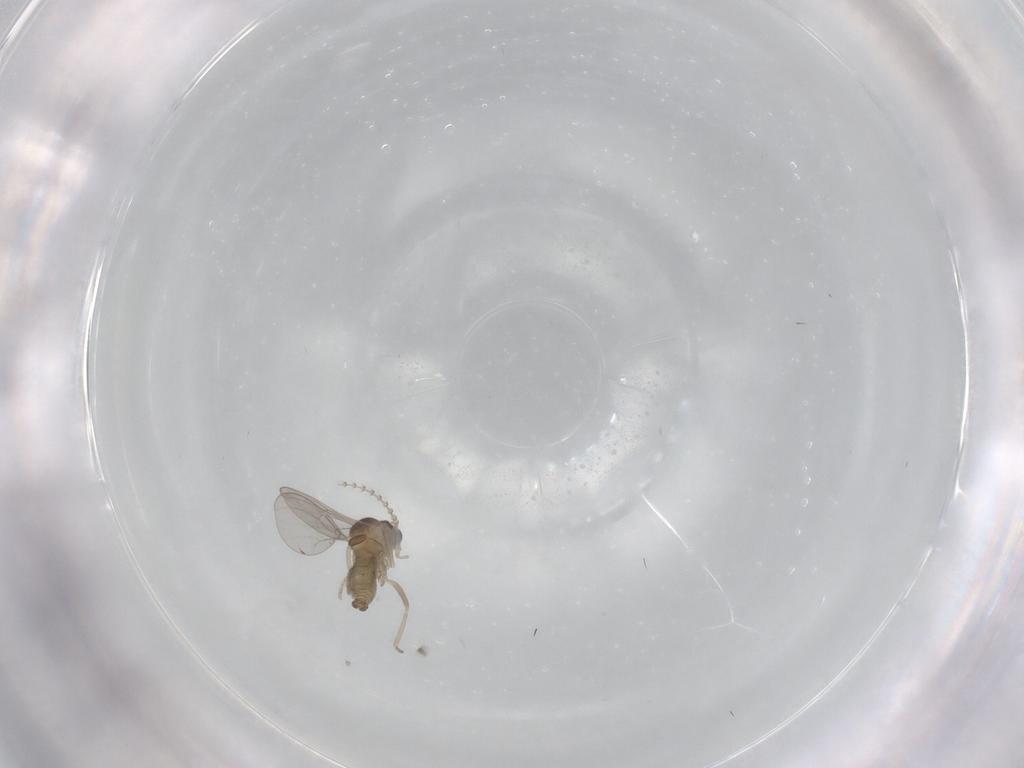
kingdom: Animalia
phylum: Arthropoda
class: Insecta
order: Diptera
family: Cecidomyiidae
